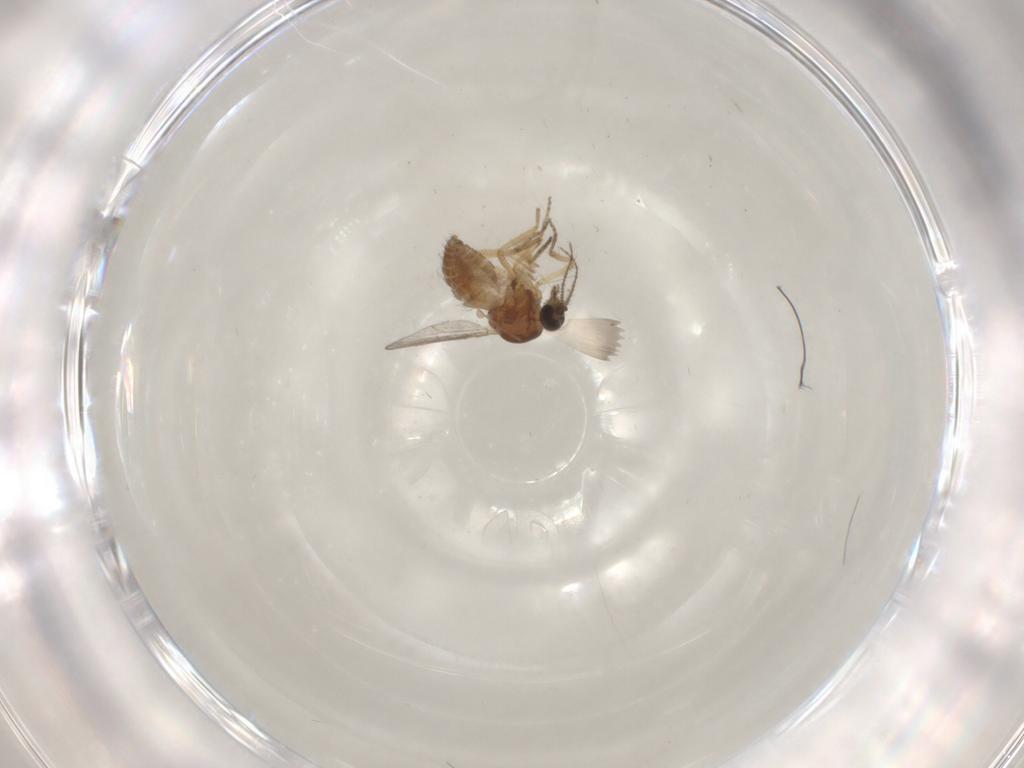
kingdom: Animalia
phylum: Arthropoda
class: Insecta
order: Diptera
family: Ceratopogonidae
